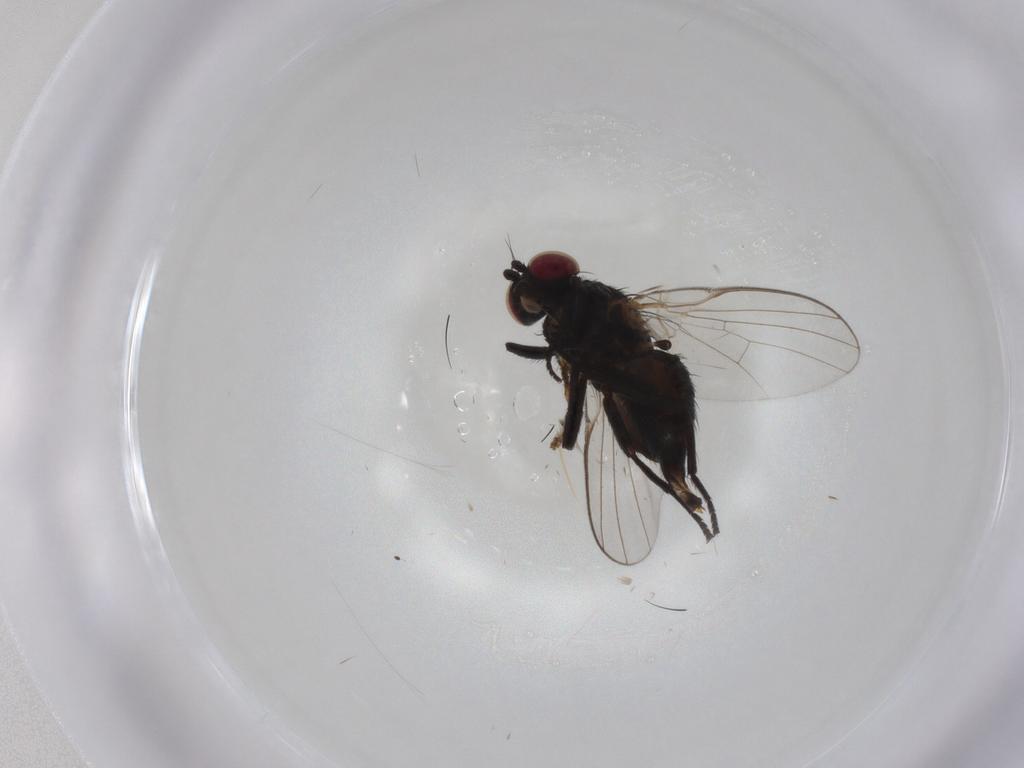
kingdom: Animalia
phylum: Arthropoda
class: Insecta
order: Diptera
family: Agromyzidae
